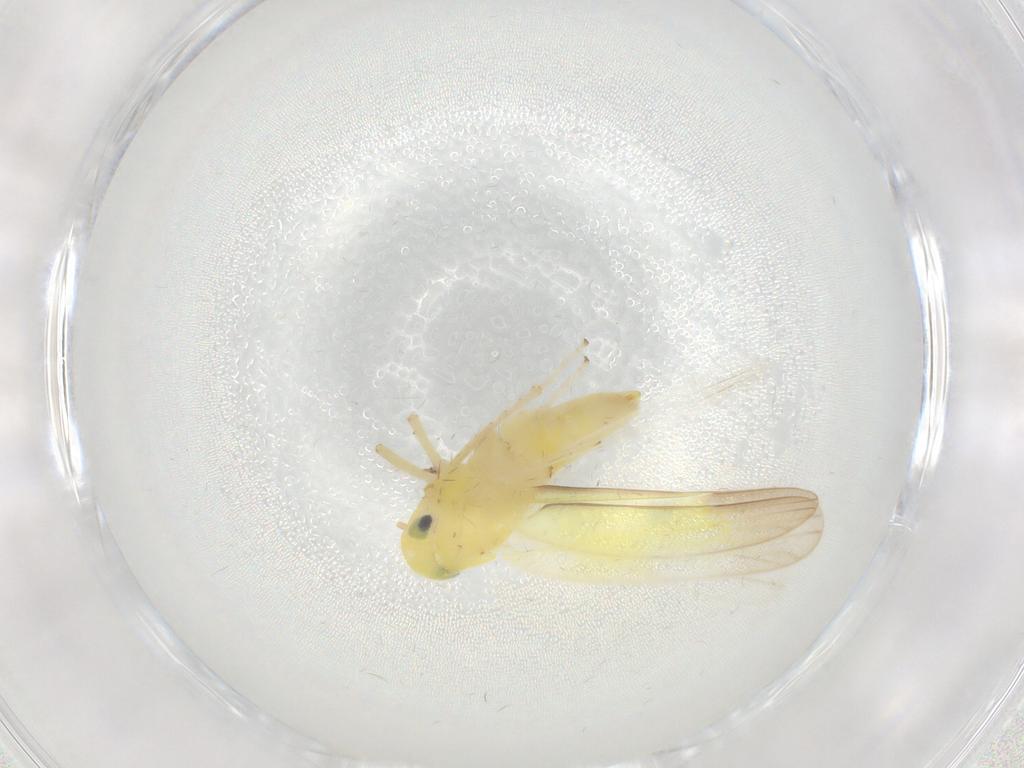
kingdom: Animalia
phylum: Arthropoda
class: Insecta
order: Hemiptera
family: Cicadellidae
